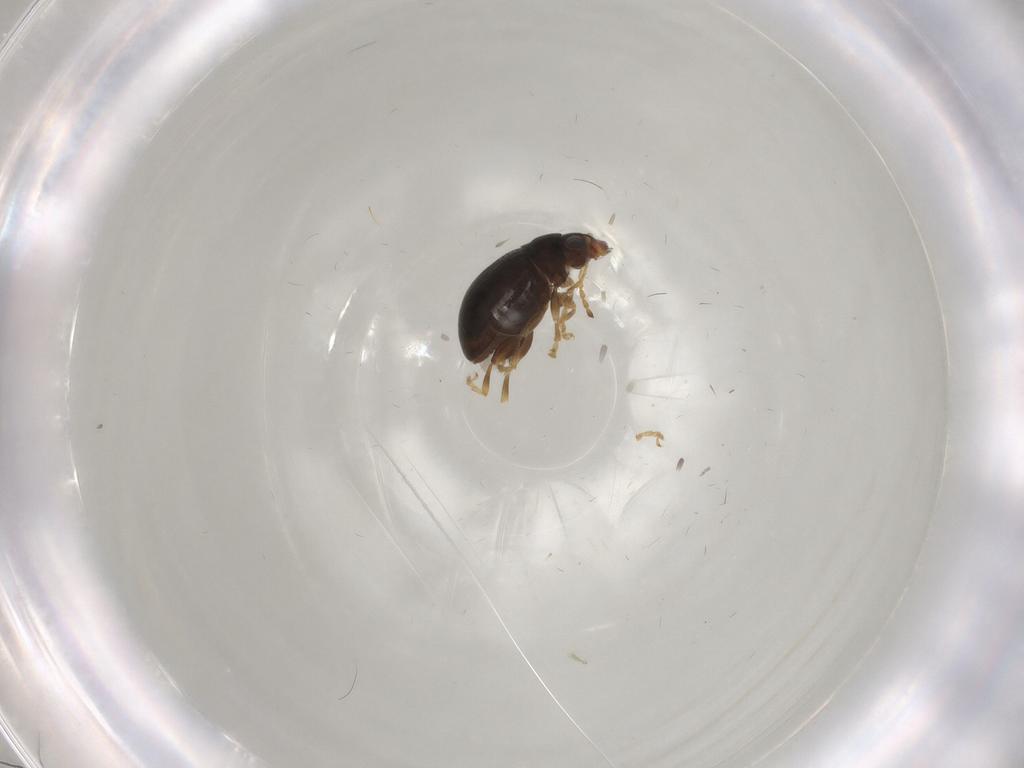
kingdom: Animalia
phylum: Arthropoda
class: Insecta
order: Coleoptera
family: Chrysomelidae
